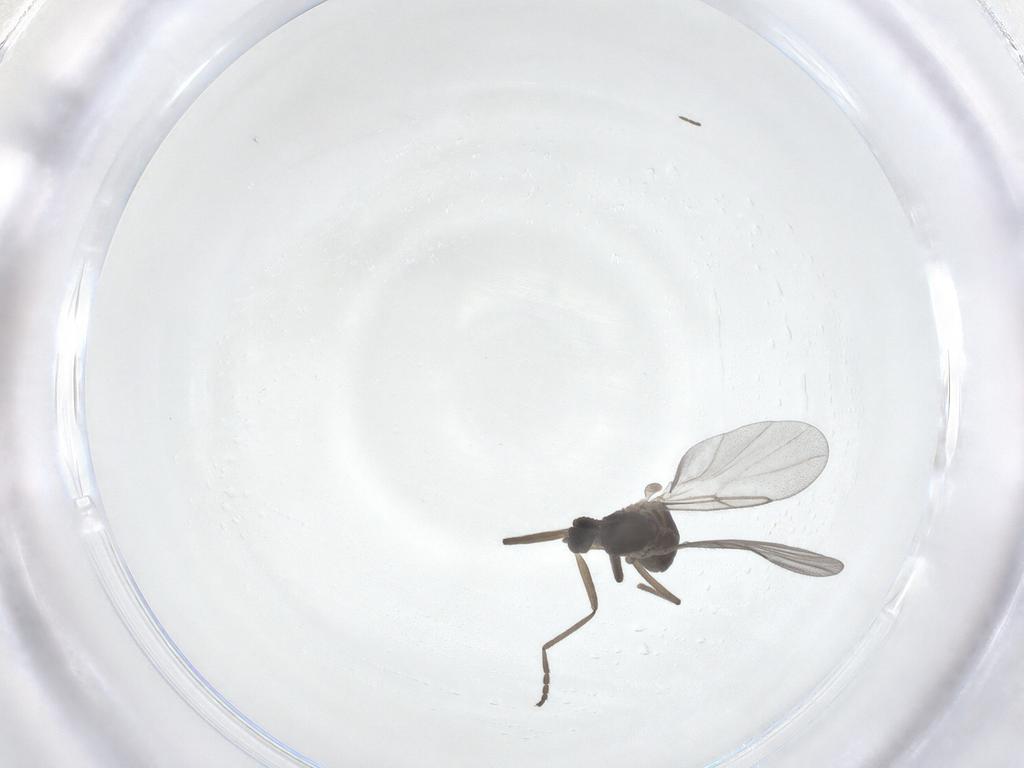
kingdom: Animalia
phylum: Arthropoda
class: Insecta
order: Diptera
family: Cecidomyiidae
